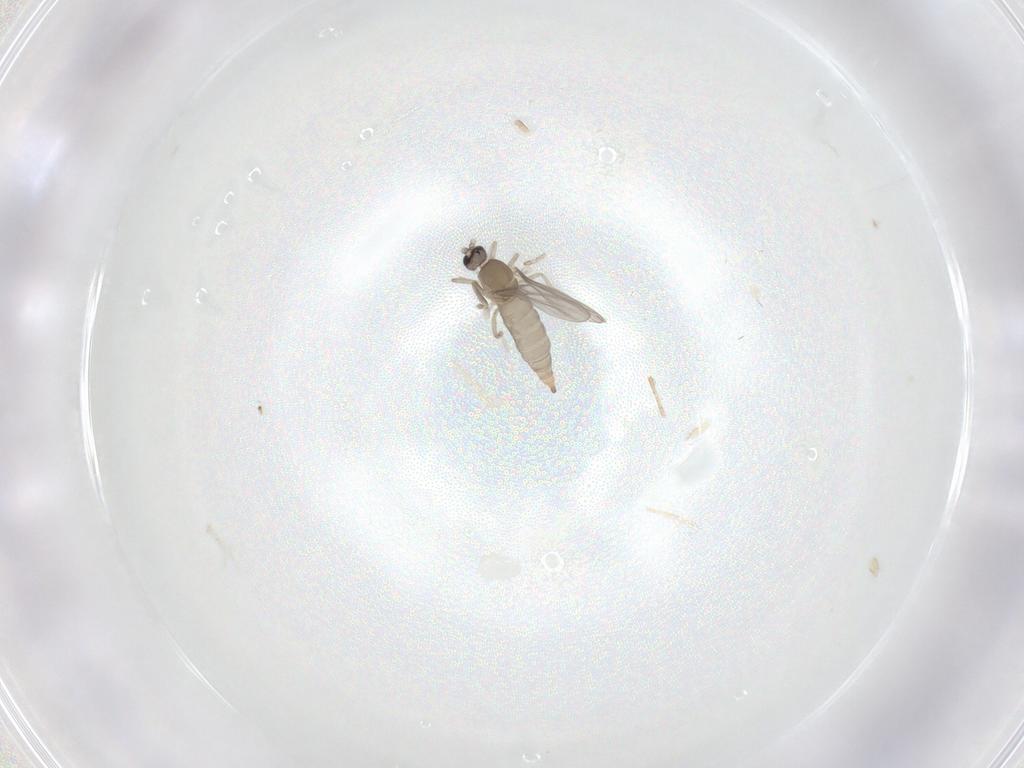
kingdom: Animalia
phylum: Arthropoda
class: Insecta
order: Diptera
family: Cecidomyiidae
